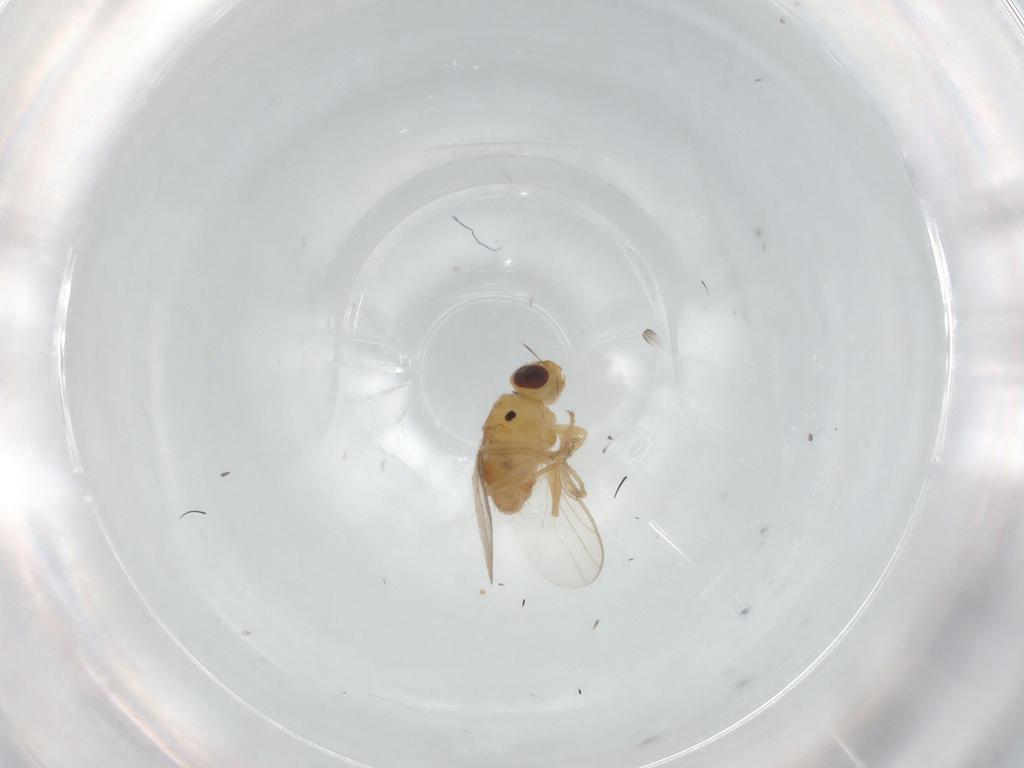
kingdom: Animalia
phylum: Arthropoda
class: Insecta
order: Diptera
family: Chloropidae
